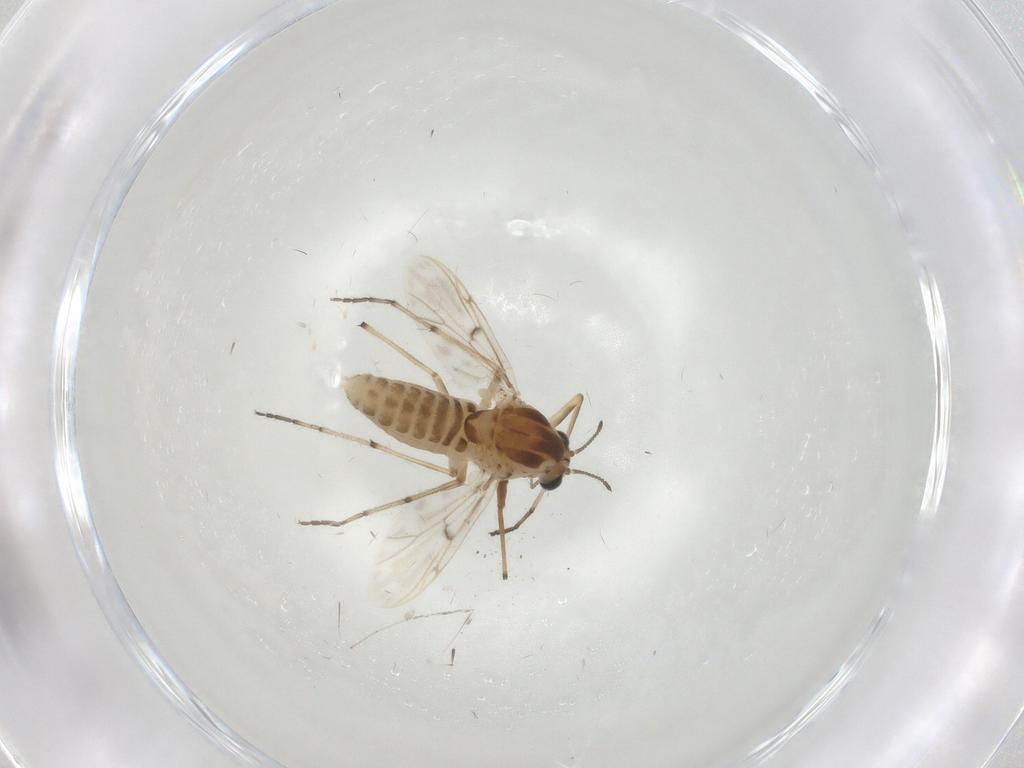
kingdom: Animalia
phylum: Arthropoda
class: Insecta
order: Diptera
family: Chironomidae
